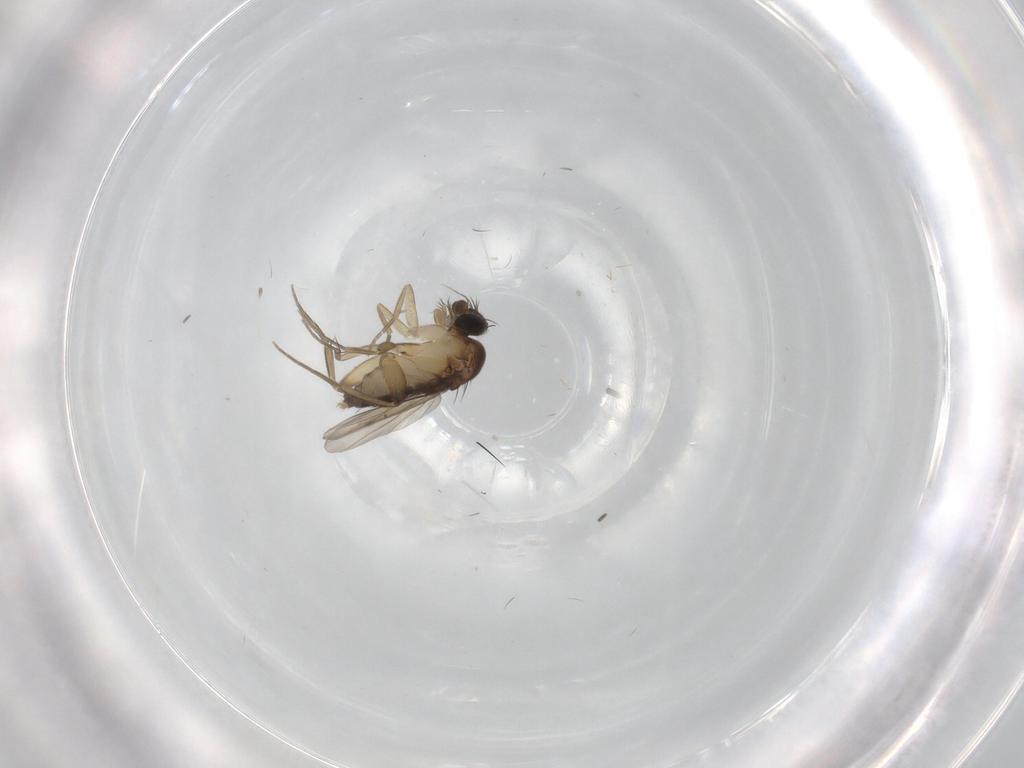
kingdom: Animalia
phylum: Arthropoda
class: Insecta
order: Diptera
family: Phoridae
